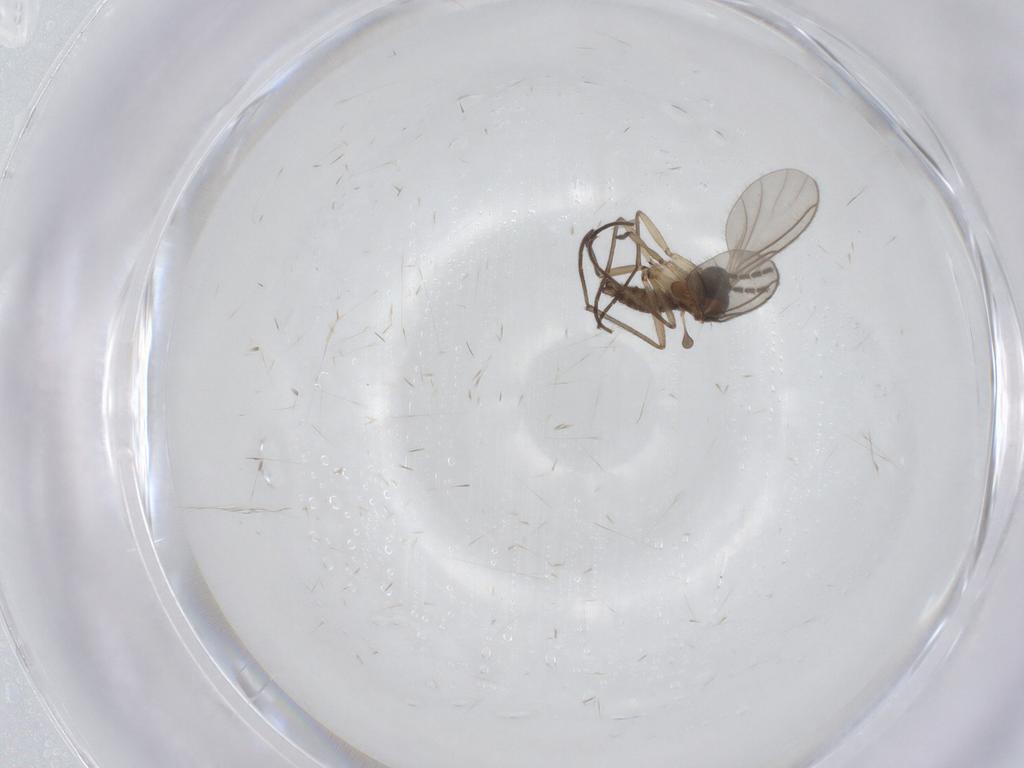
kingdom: Animalia
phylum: Arthropoda
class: Insecta
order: Diptera
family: Sciaridae
